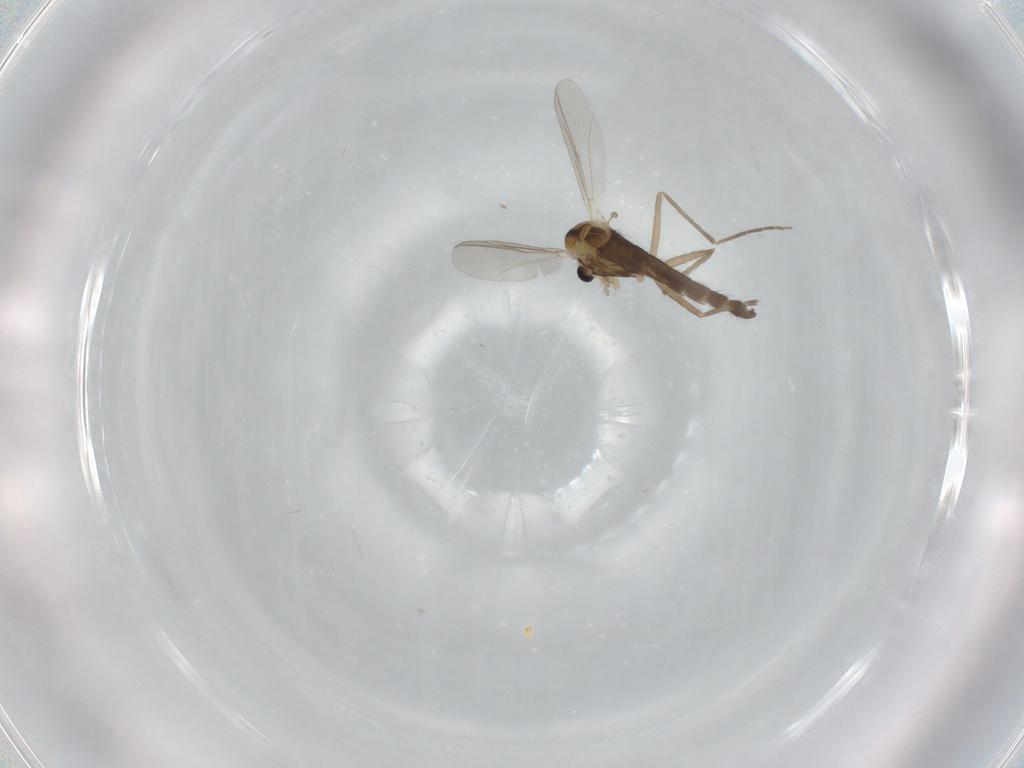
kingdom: Animalia
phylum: Arthropoda
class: Insecta
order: Diptera
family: Chironomidae
